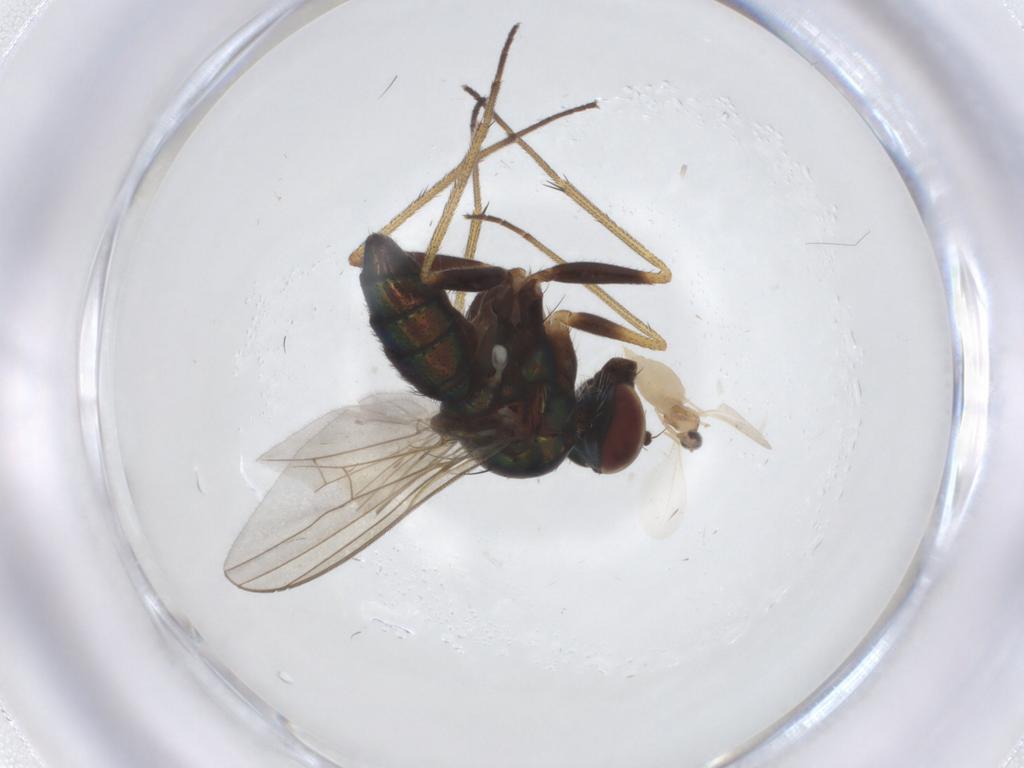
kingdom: Animalia
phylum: Arthropoda
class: Insecta
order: Diptera
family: Cecidomyiidae
